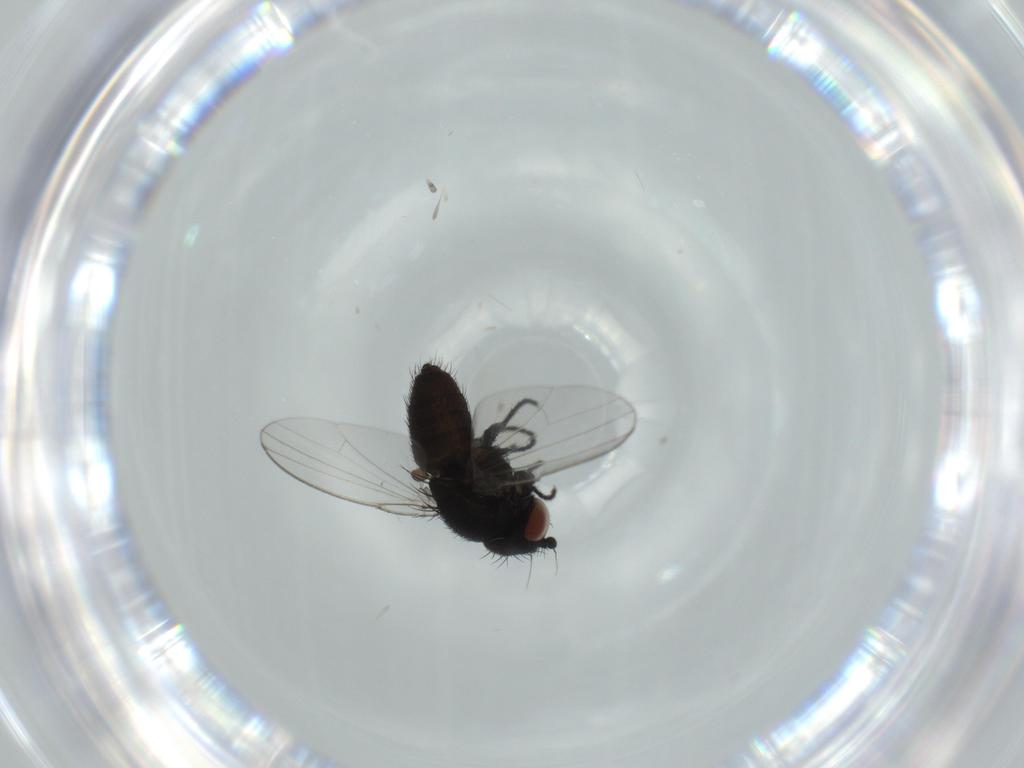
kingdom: Animalia
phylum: Arthropoda
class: Insecta
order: Diptera
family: Milichiidae
